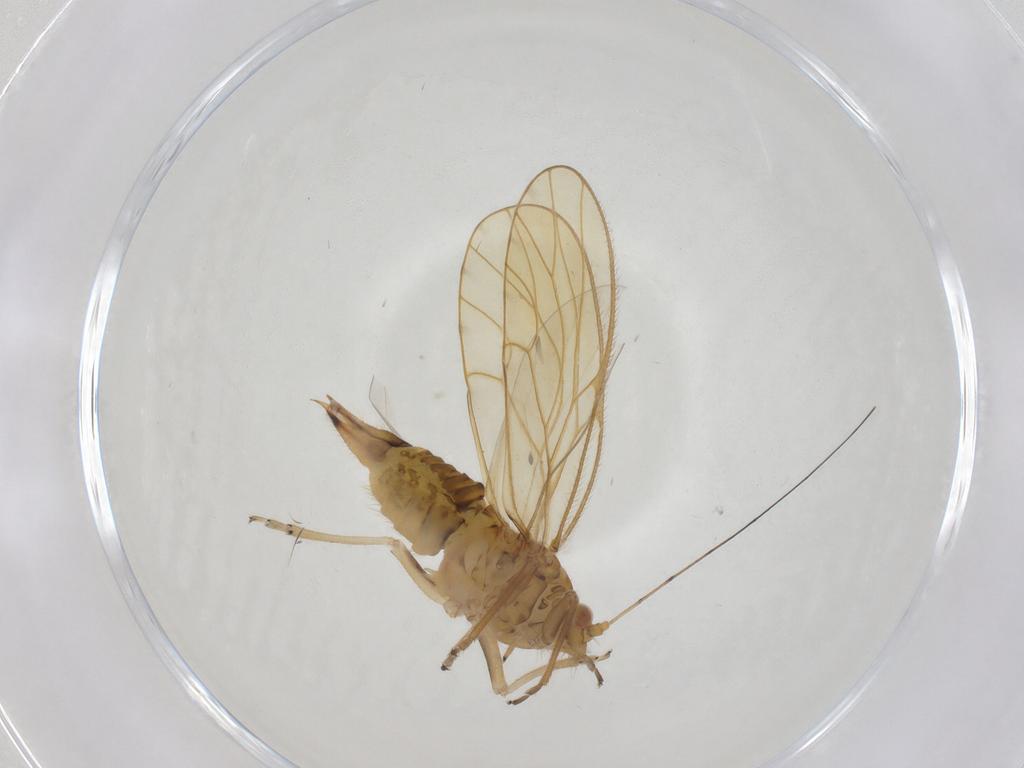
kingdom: Animalia
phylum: Arthropoda
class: Insecta
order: Hemiptera
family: Psyllidae
